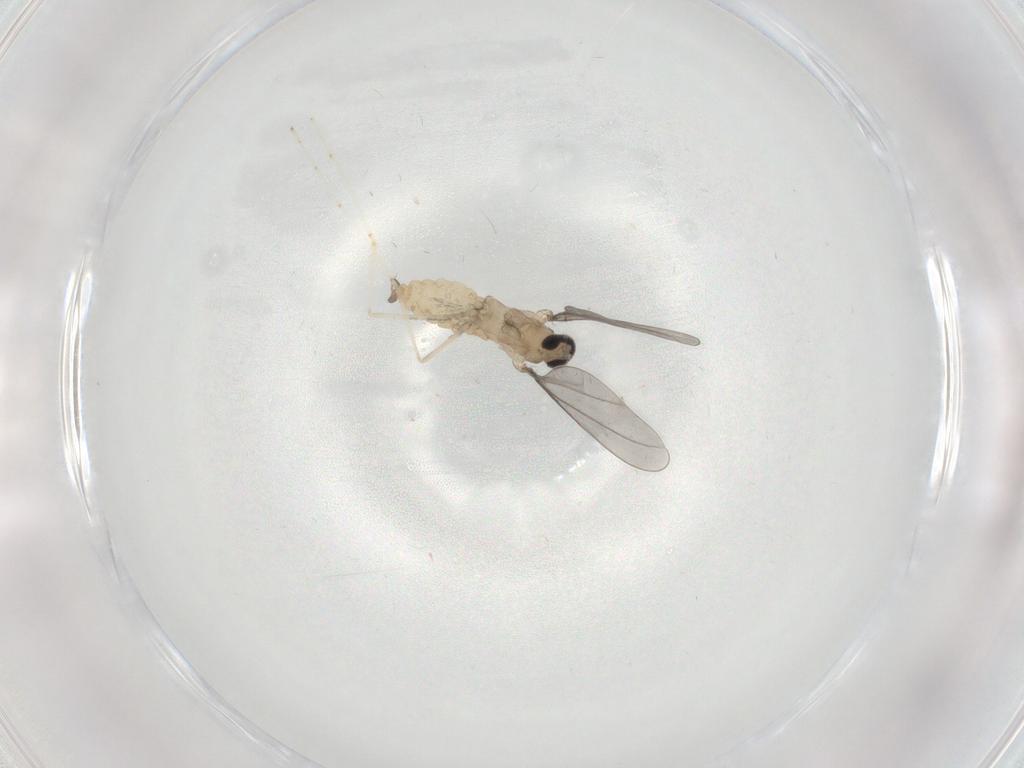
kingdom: Animalia
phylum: Arthropoda
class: Insecta
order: Diptera
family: Cecidomyiidae
